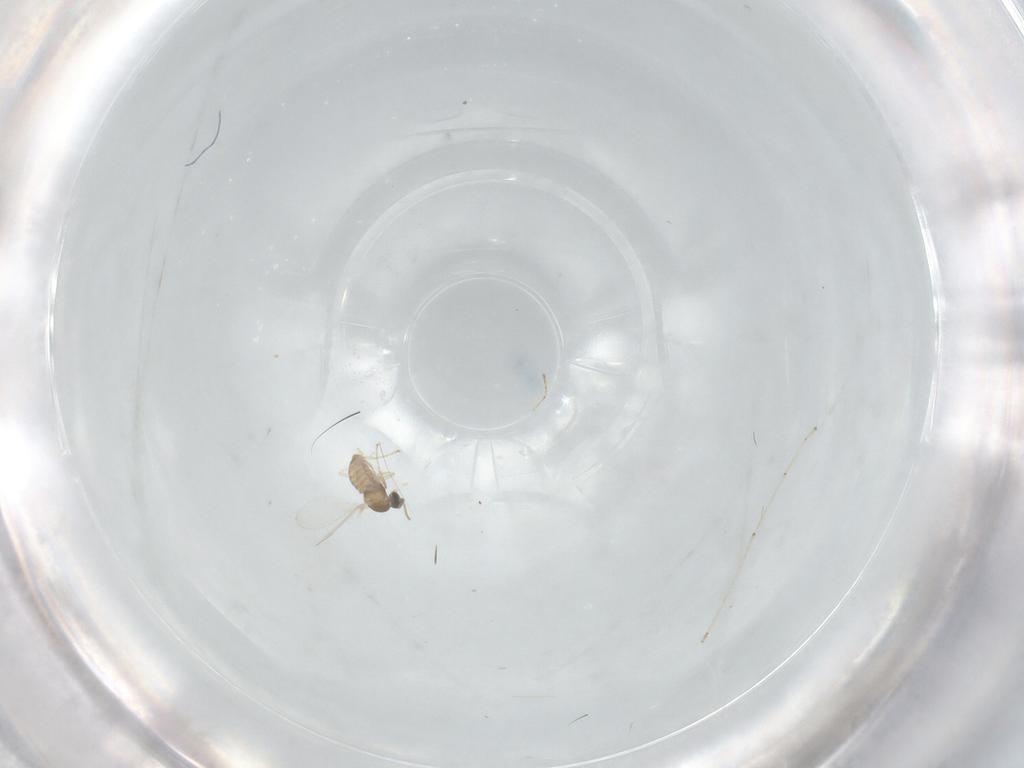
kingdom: Animalia
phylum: Arthropoda
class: Insecta
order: Diptera
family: Cecidomyiidae
